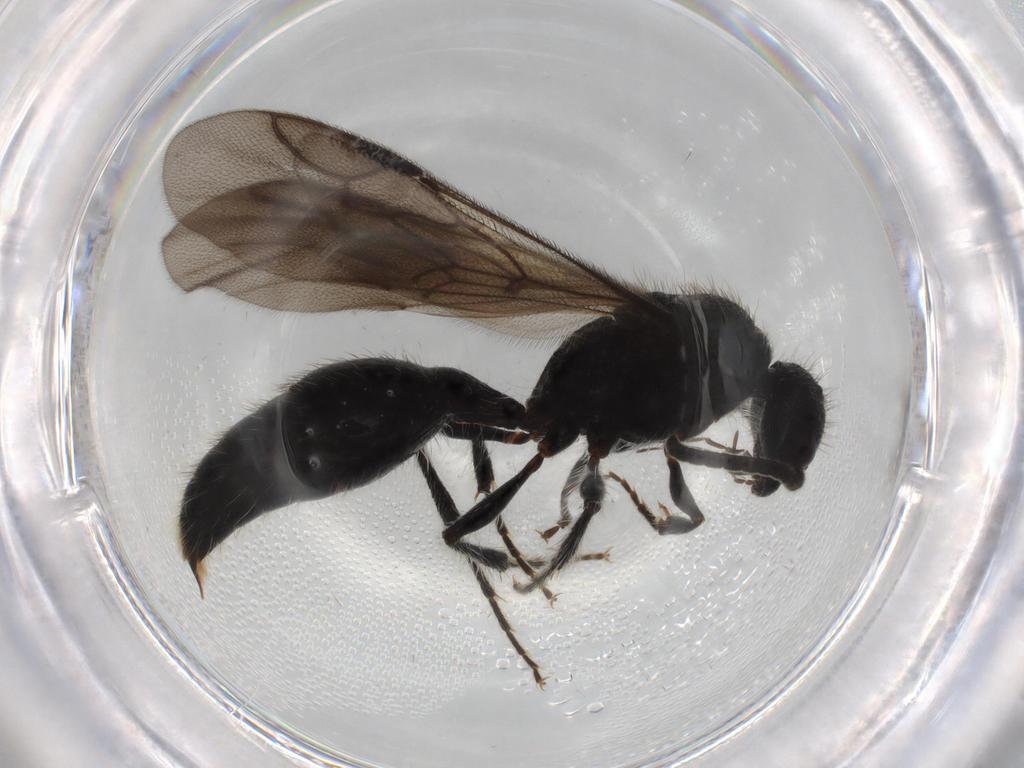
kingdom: Animalia
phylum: Arthropoda
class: Insecta
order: Hymenoptera
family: Mutillidae
